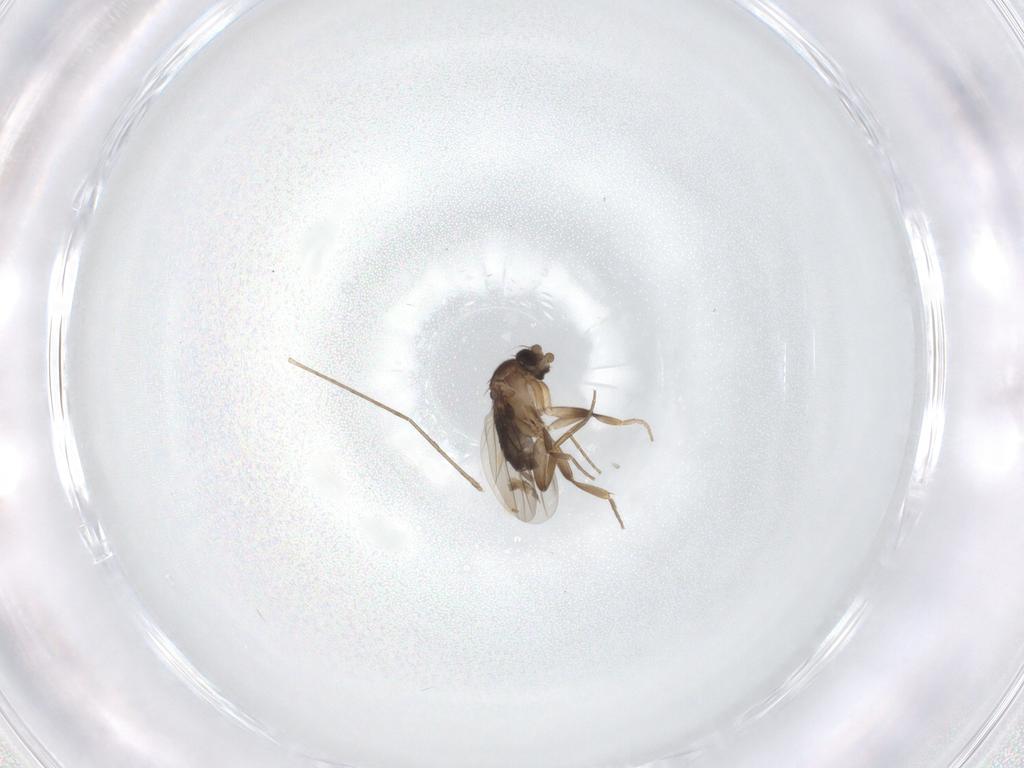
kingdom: Animalia
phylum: Arthropoda
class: Insecta
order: Diptera
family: Phoridae
